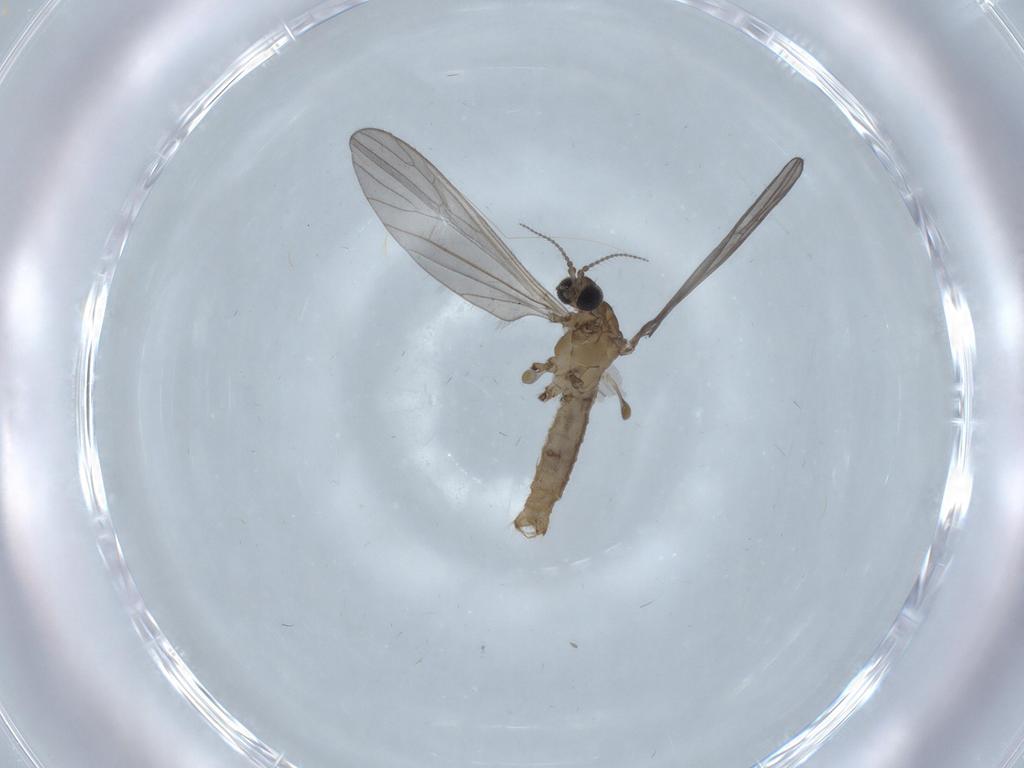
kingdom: Animalia
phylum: Arthropoda
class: Insecta
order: Diptera
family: Limoniidae
